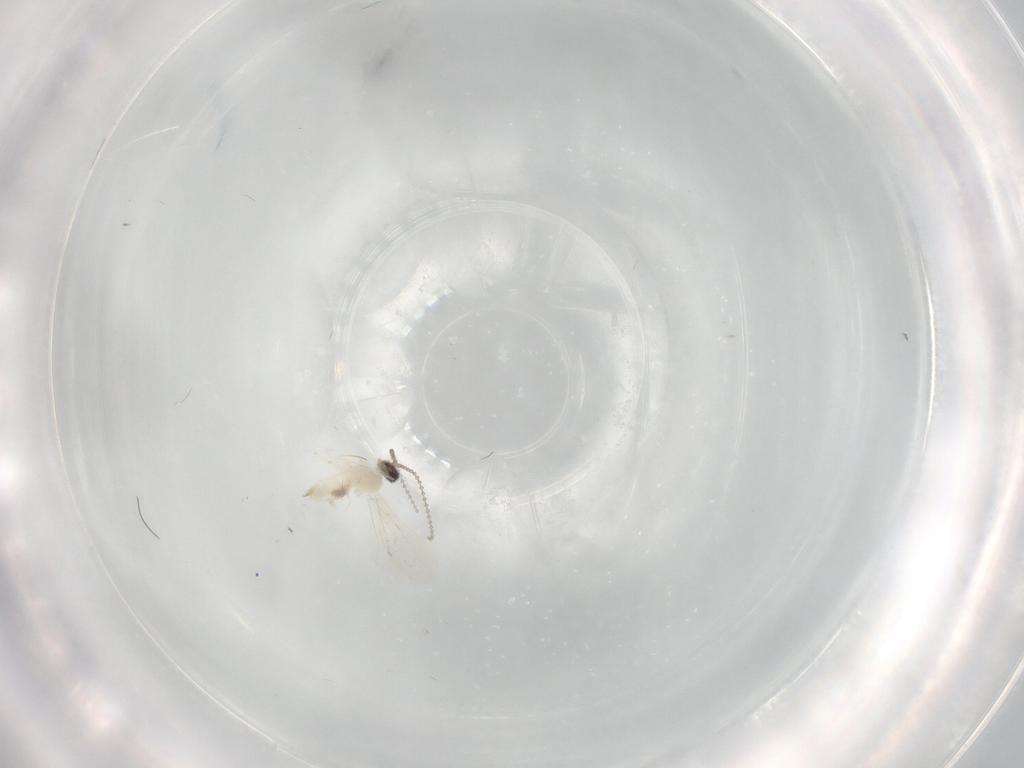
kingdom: Animalia
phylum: Arthropoda
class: Insecta
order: Diptera
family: Cecidomyiidae
